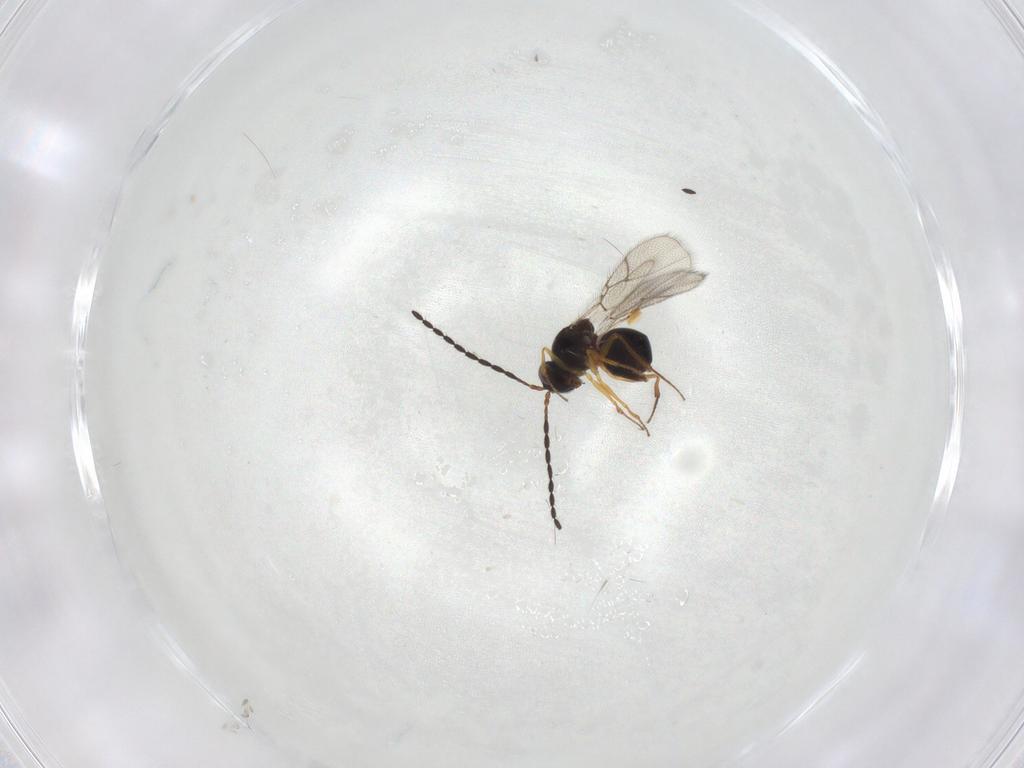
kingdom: Animalia
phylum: Arthropoda
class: Insecta
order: Hymenoptera
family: Figitidae
